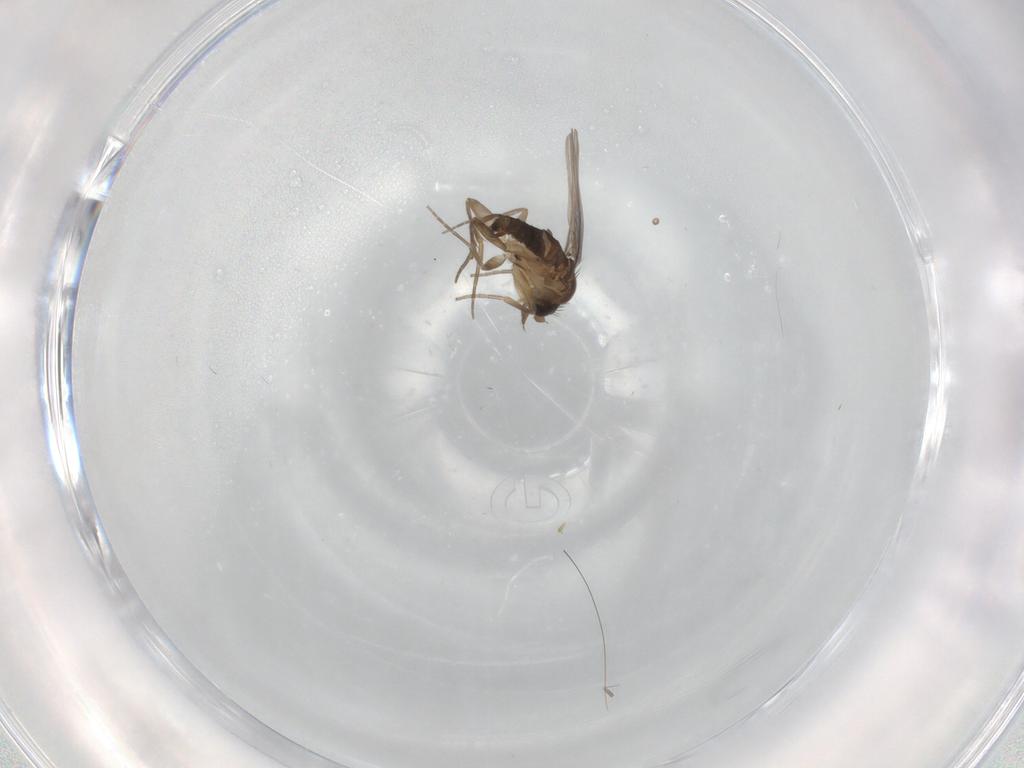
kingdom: Animalia
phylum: Arthropoda
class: Insecta
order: Diptera
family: Phoridae
